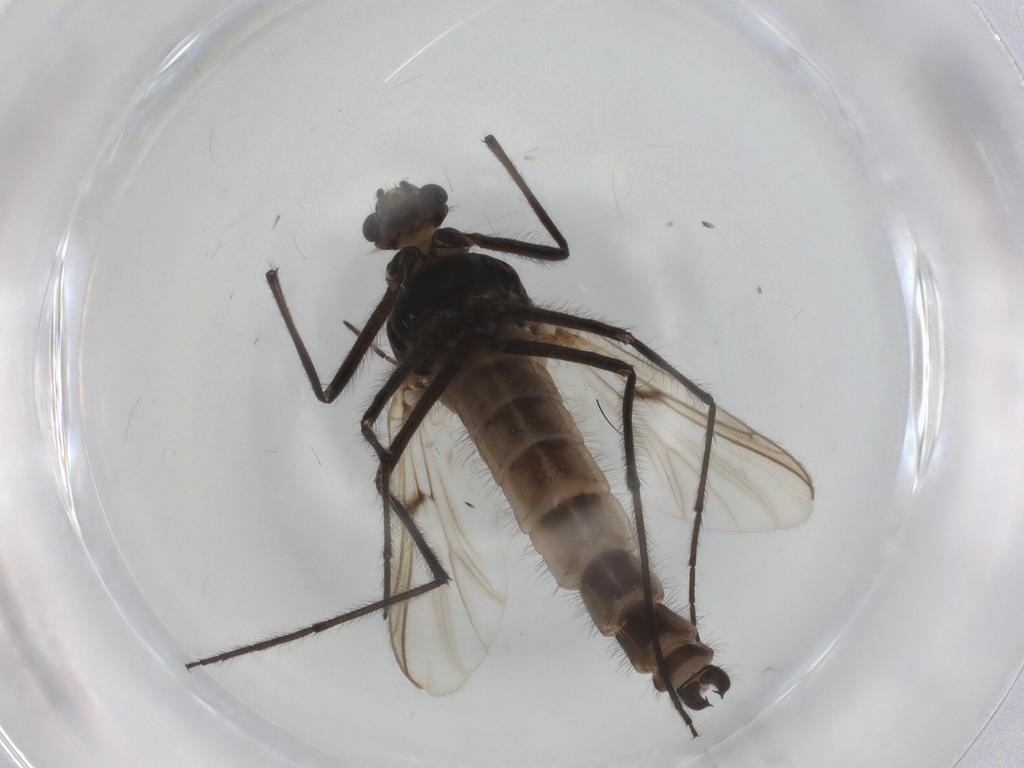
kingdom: Animalia
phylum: Arthropoda
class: Insecta
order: Diptera
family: Chironomidae
